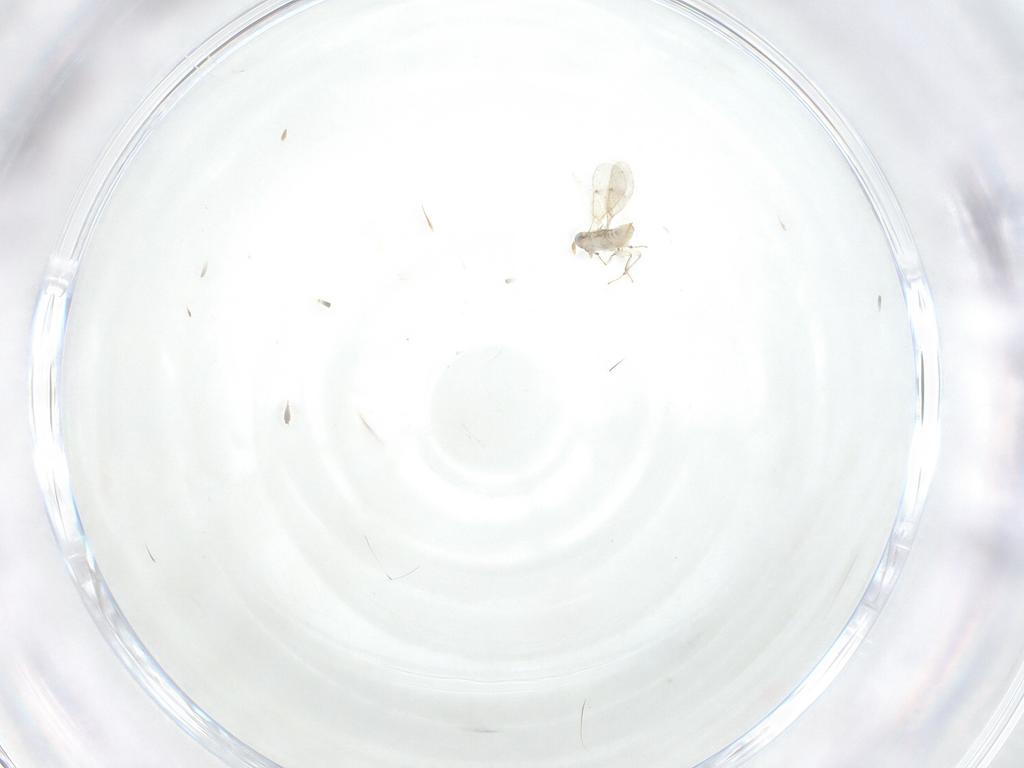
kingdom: Animalia
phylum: Arthropoda
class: Insecta
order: Hymenoptera
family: Aphelinidae
